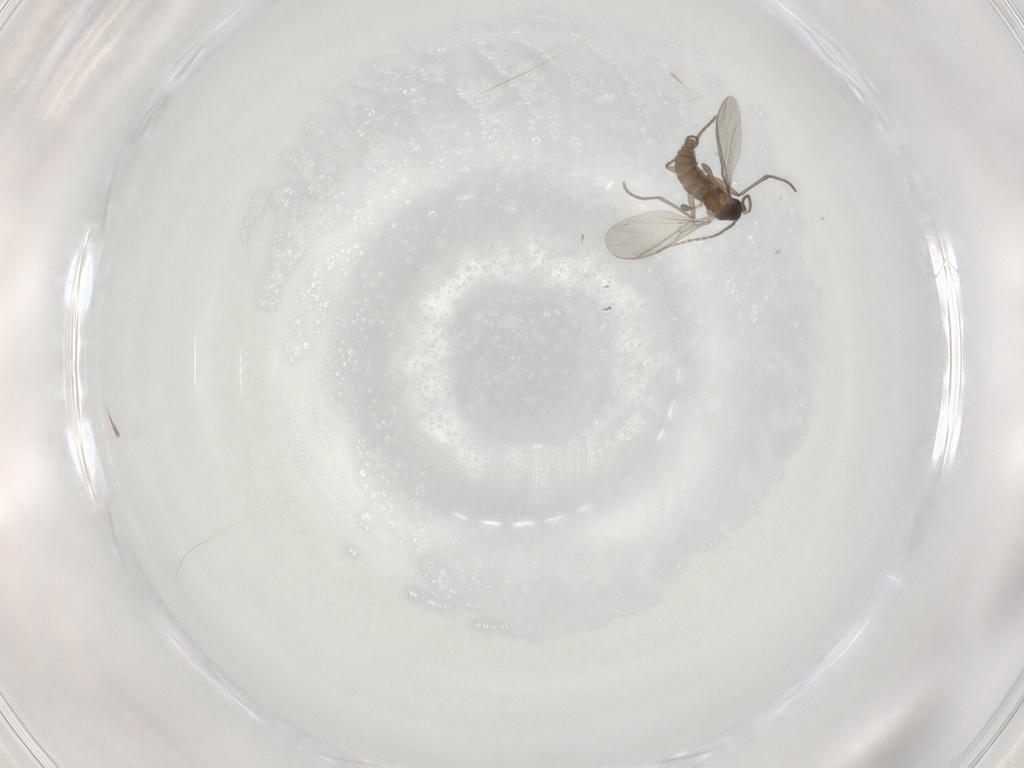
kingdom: Animalia
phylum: Arthropoda
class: Insecta
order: Diptera
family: Sciaridae
